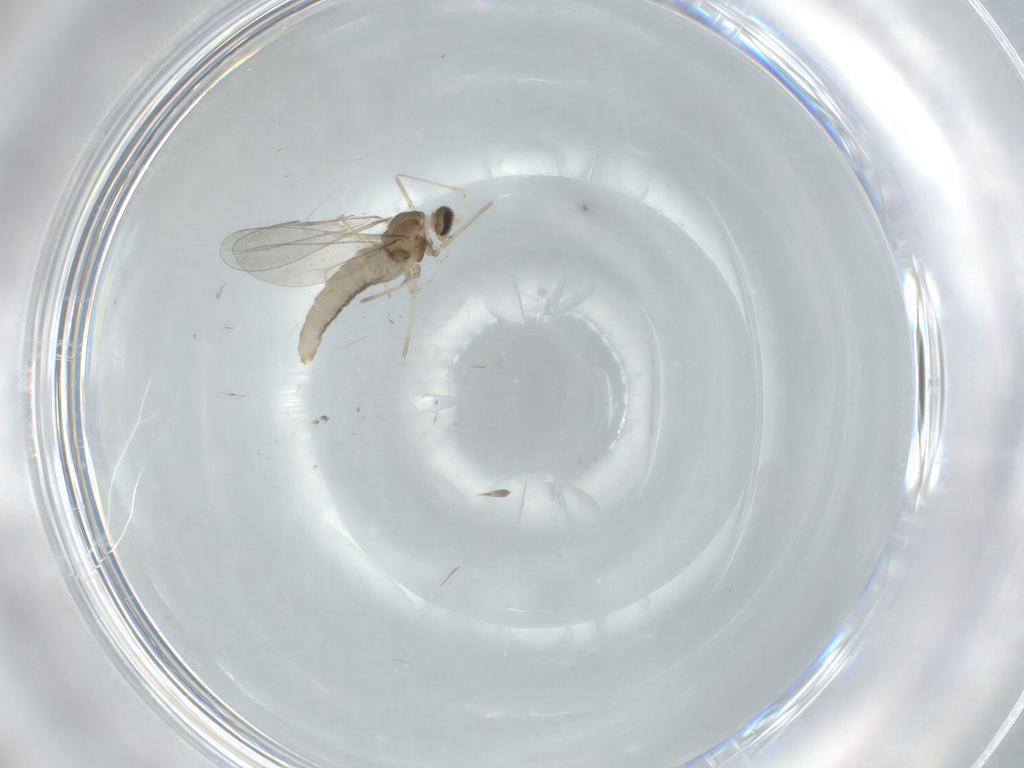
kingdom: Animalia
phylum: Arthropoda
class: Insecta
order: Diptera
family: Cecidomyiidae
